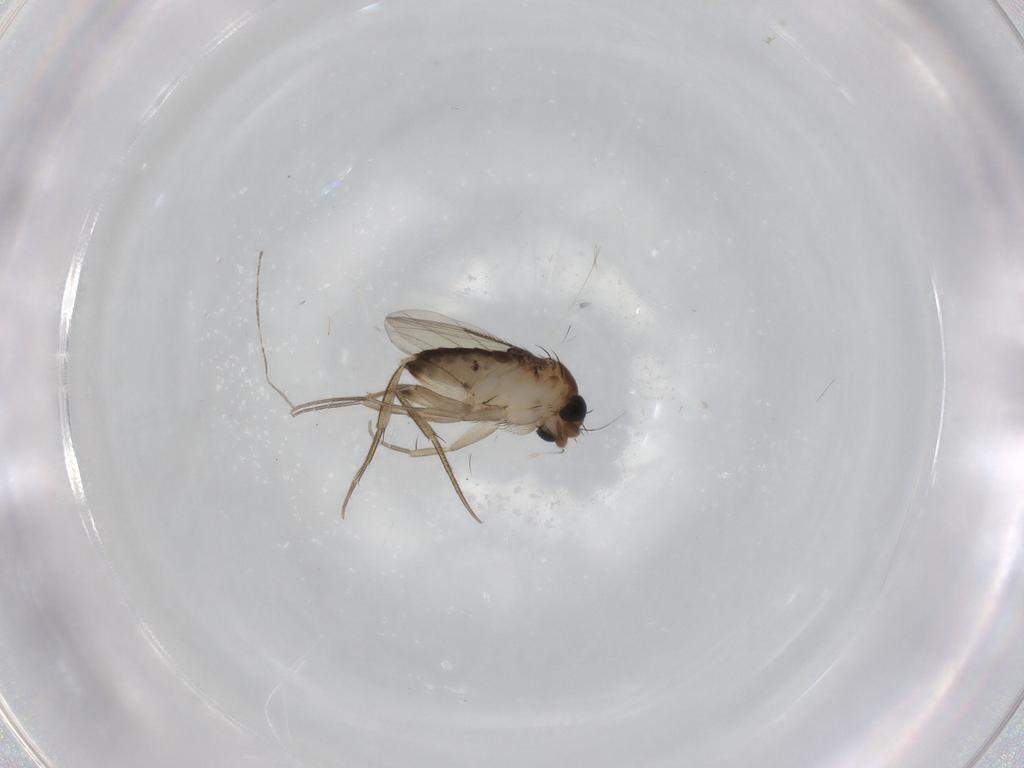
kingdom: Animalia
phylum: Arthropoda
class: Insecta
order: Diptera
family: Phoridae
